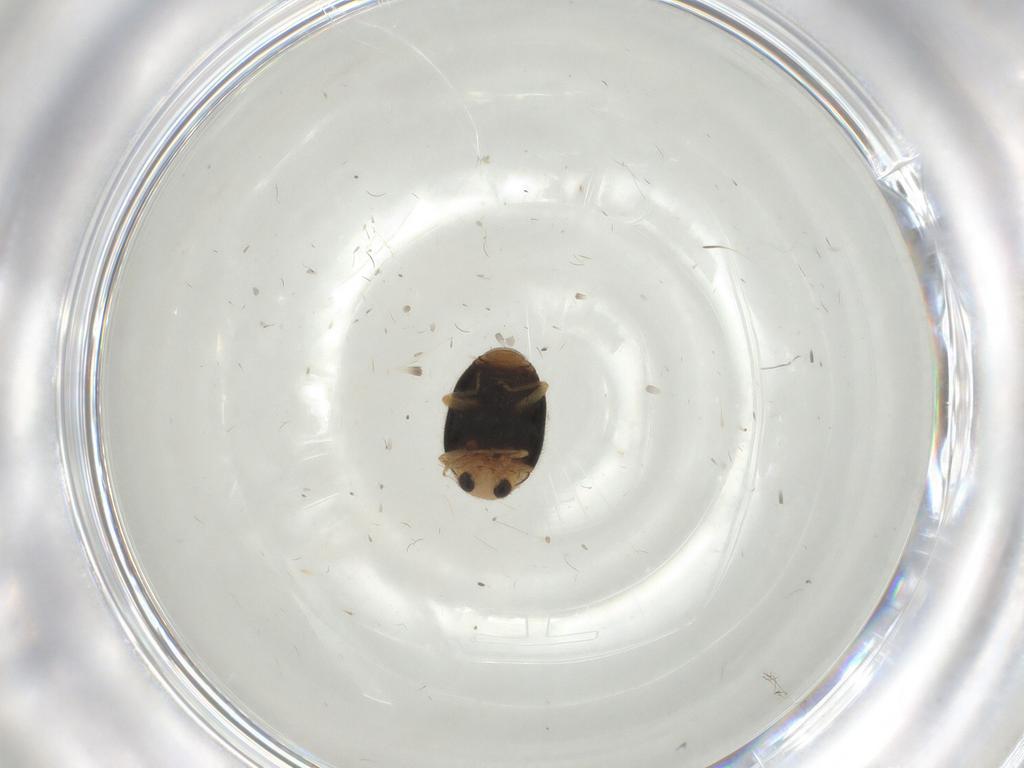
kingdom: Animalia
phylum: Arthropoda
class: Insecta
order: Coleoptera
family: Coccinellidae
